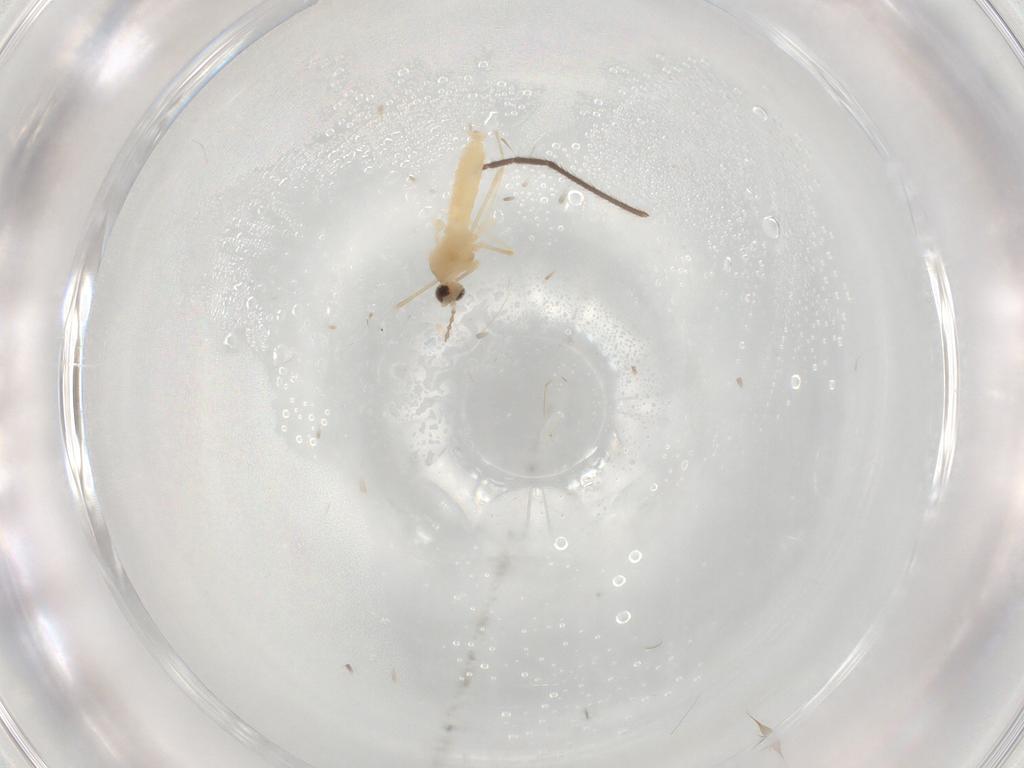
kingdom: Animalia
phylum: Arthropoda
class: Insecta
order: Diptera
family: Cecidomyiidae
